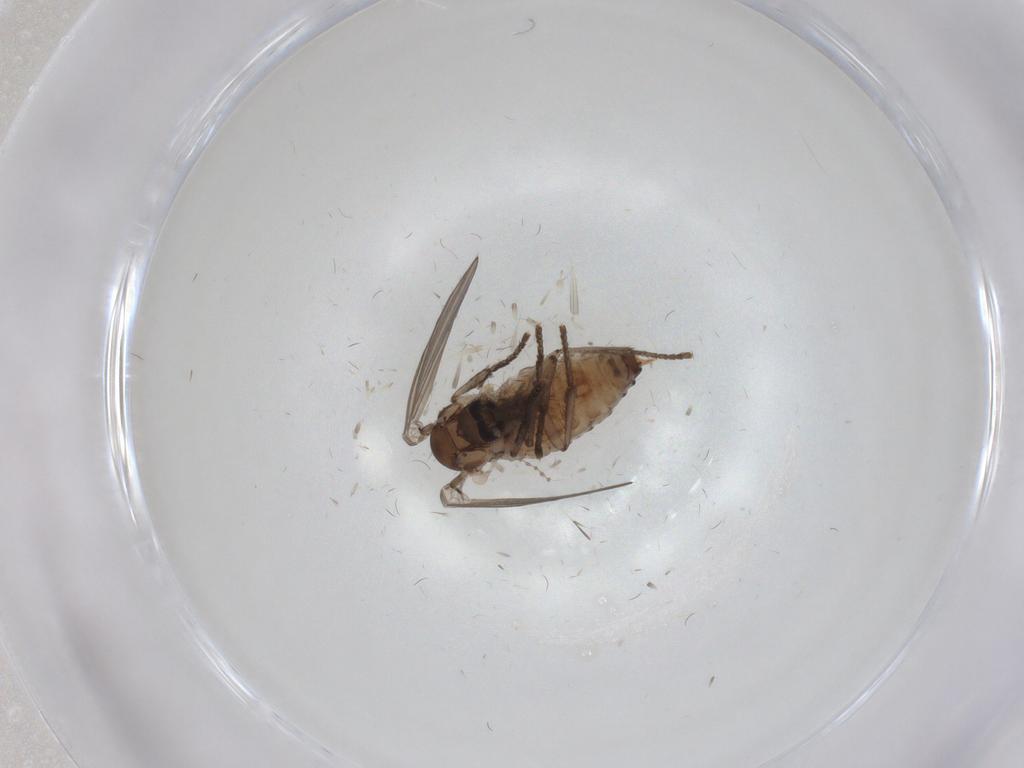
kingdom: Animalia
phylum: Arthropoda
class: Insecta
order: Diptera
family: Psychodidae
